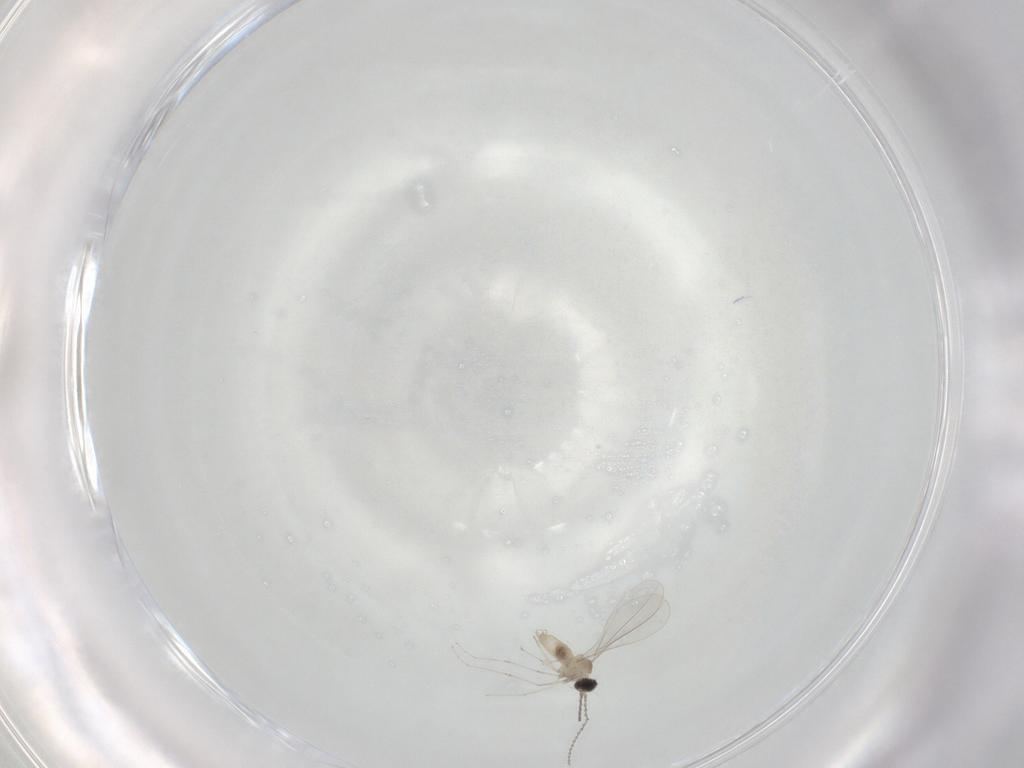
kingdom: Animalia
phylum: Arthropoda
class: Insecta
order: Diptera
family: Cecidomyiidae
